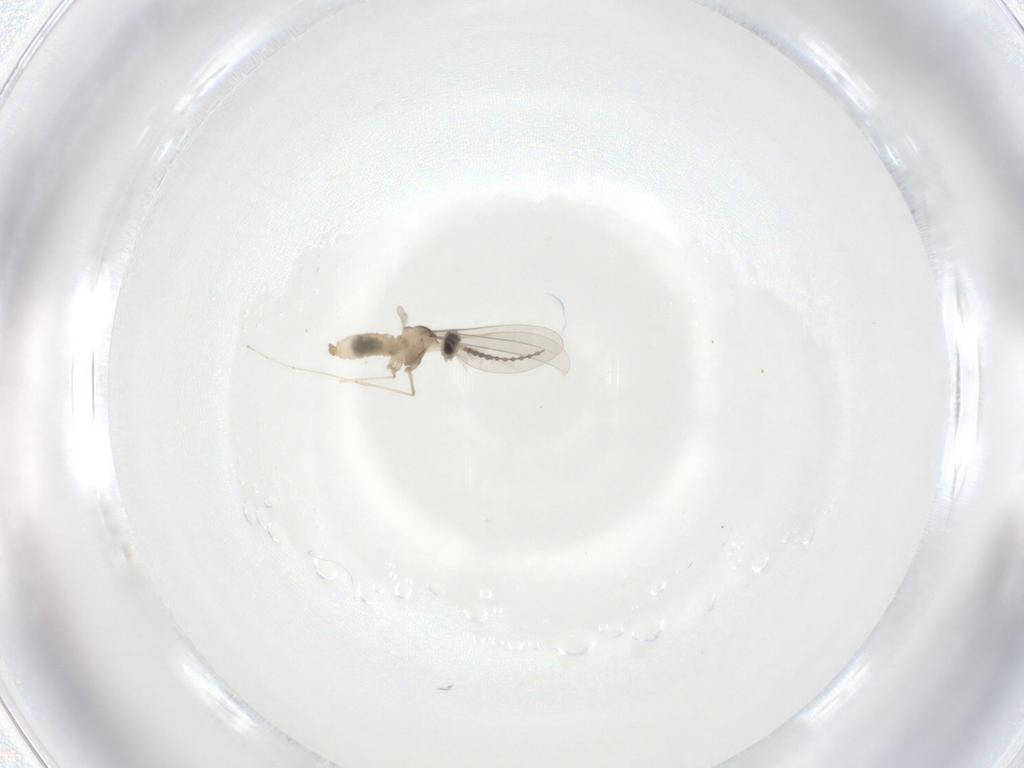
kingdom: Animalia
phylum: Arthropoda
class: Insecta
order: Diptera
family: Cecidomyiidae
